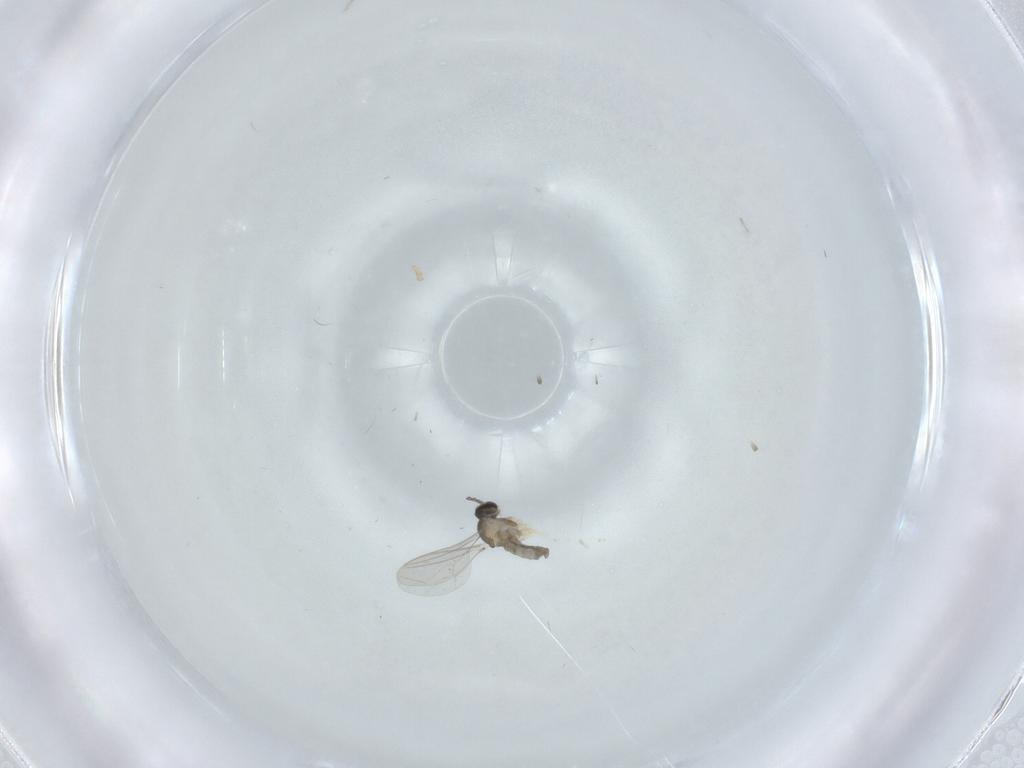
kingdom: Animalia
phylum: Arthropoda
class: Insecta
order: Diptera
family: Cecidomyiidae
